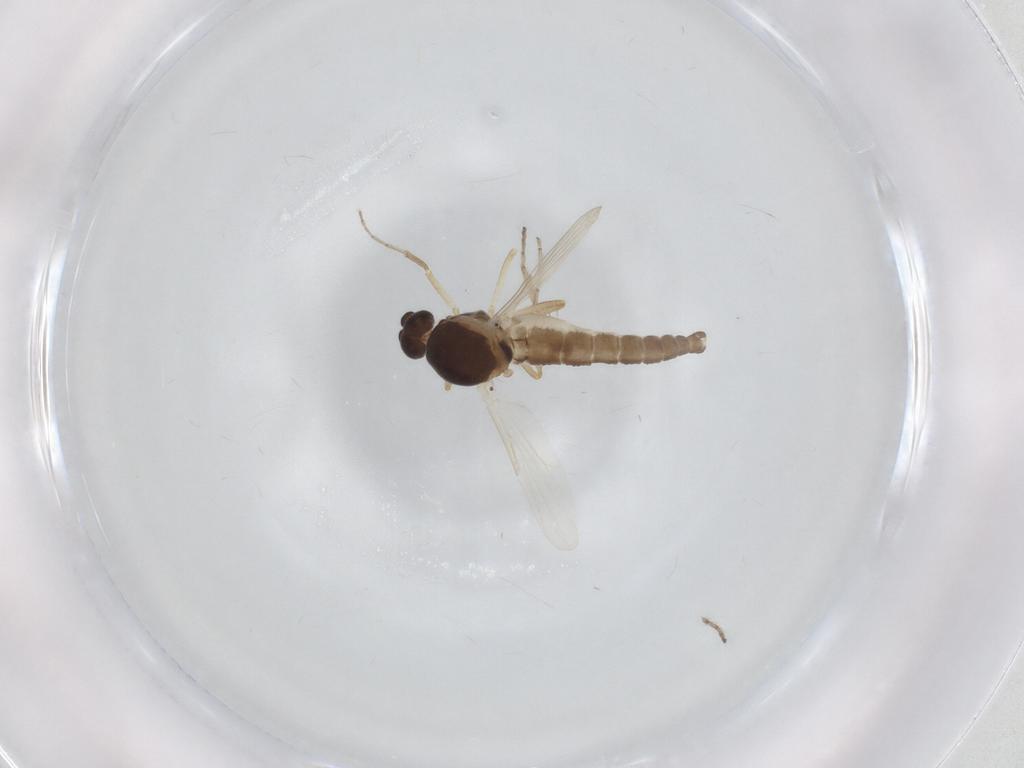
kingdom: Animalia
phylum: Arthropoda
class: Insecta
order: Diptera
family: Ceratopogonidae
